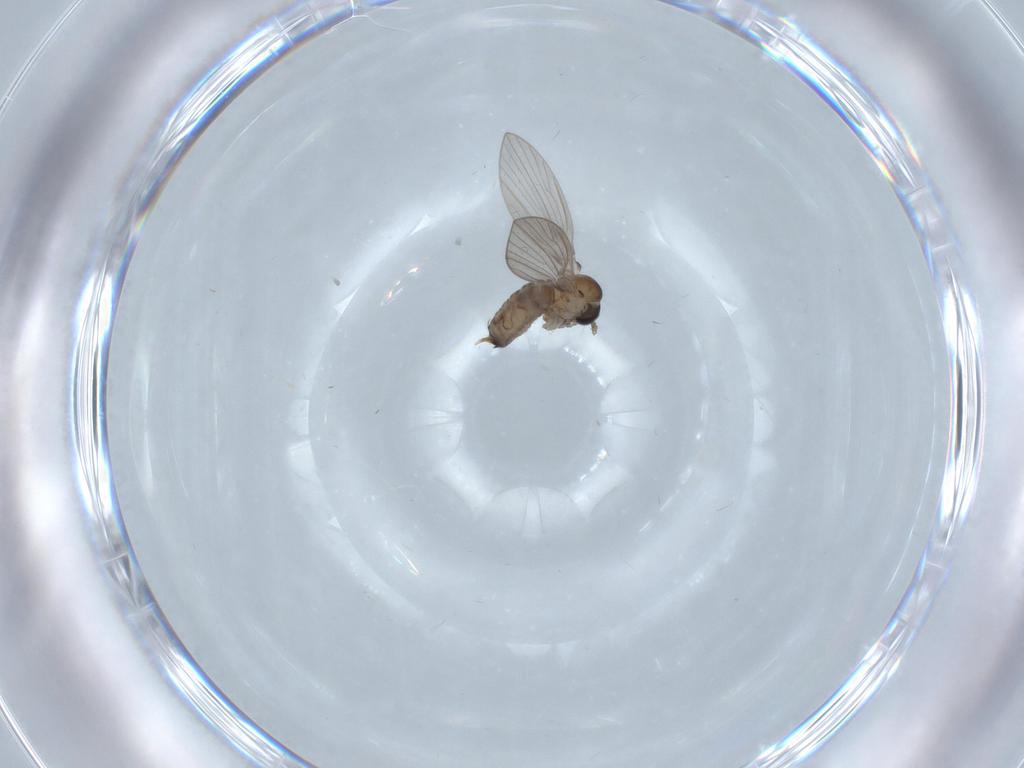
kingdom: Animalia
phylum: Arthropoda
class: Insecta
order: Diptera
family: Psychodidae
